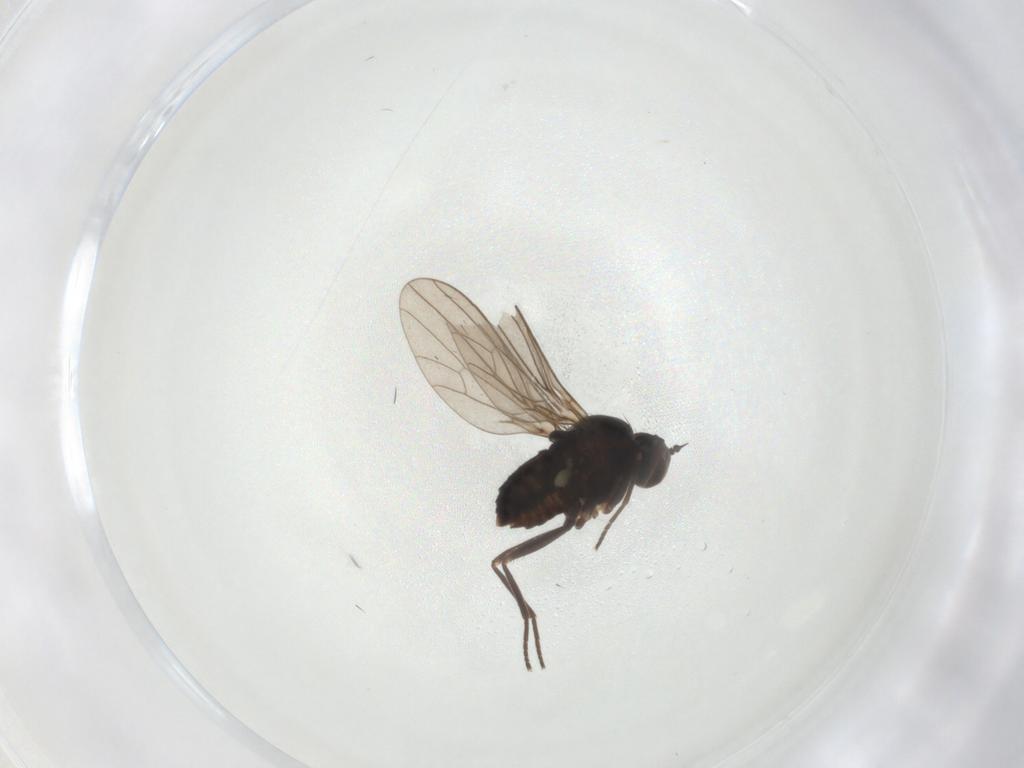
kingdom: Animalia
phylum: Arthropoda
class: Insecta
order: Diptera
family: Dolichopodidae
